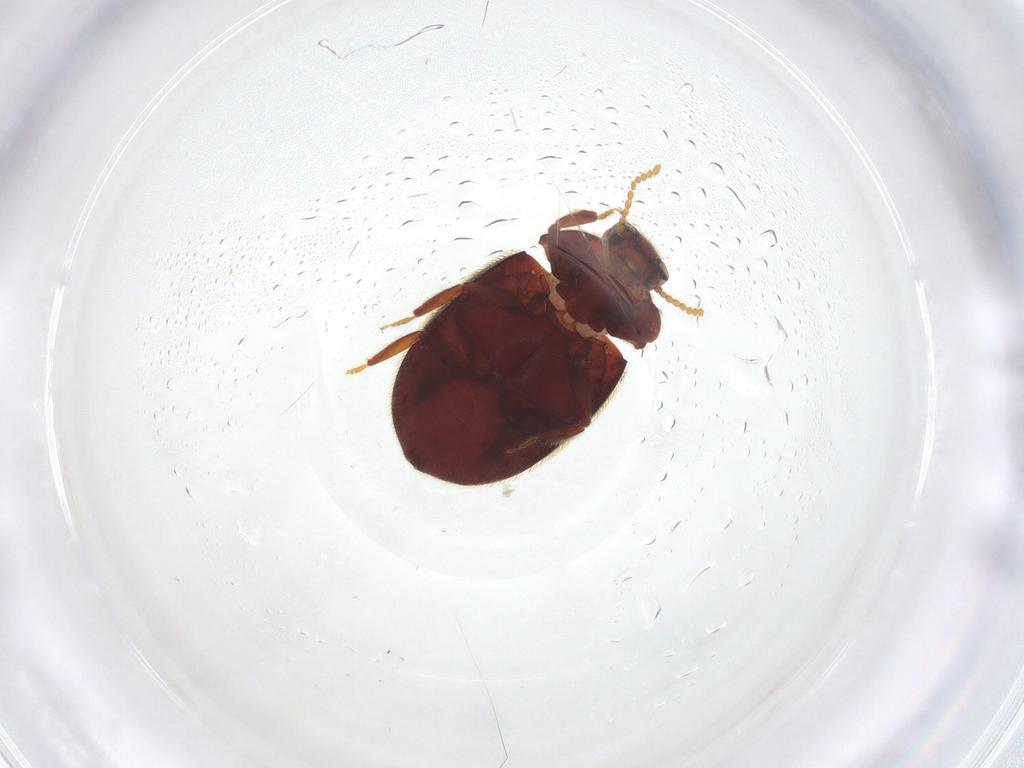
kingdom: Animalia
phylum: Arthropoda
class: Insecta
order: Coleoptera
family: Limnichidae
